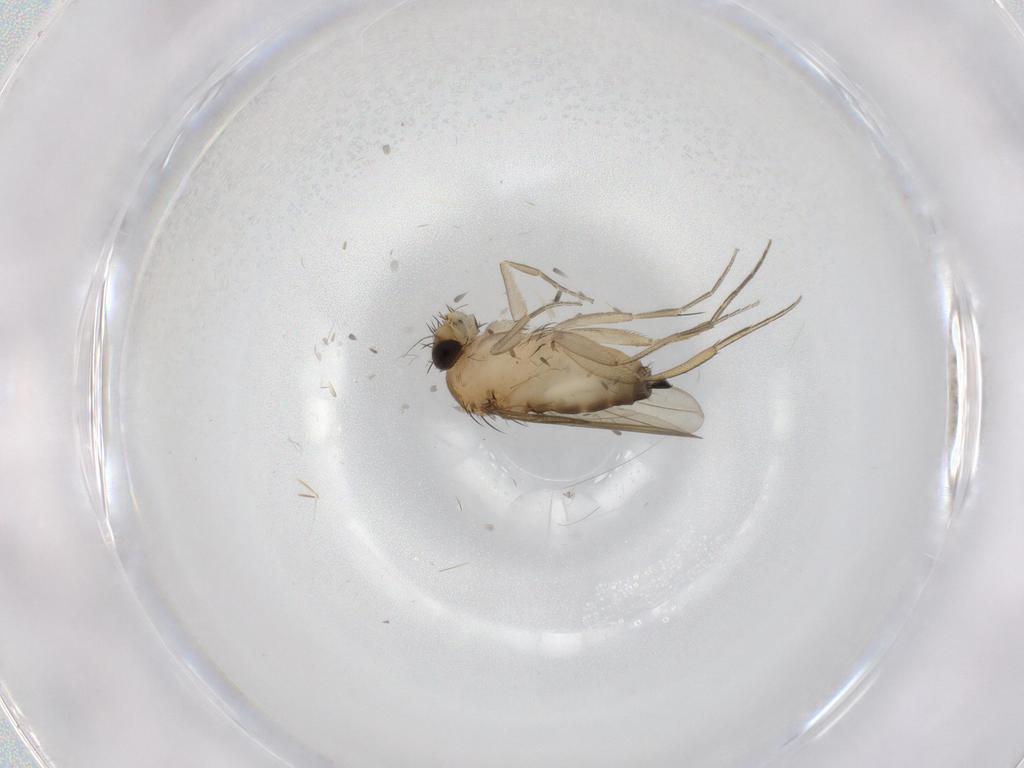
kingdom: Animalia
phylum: Arthropoda
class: Insecta
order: Diptera
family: Phoridae
